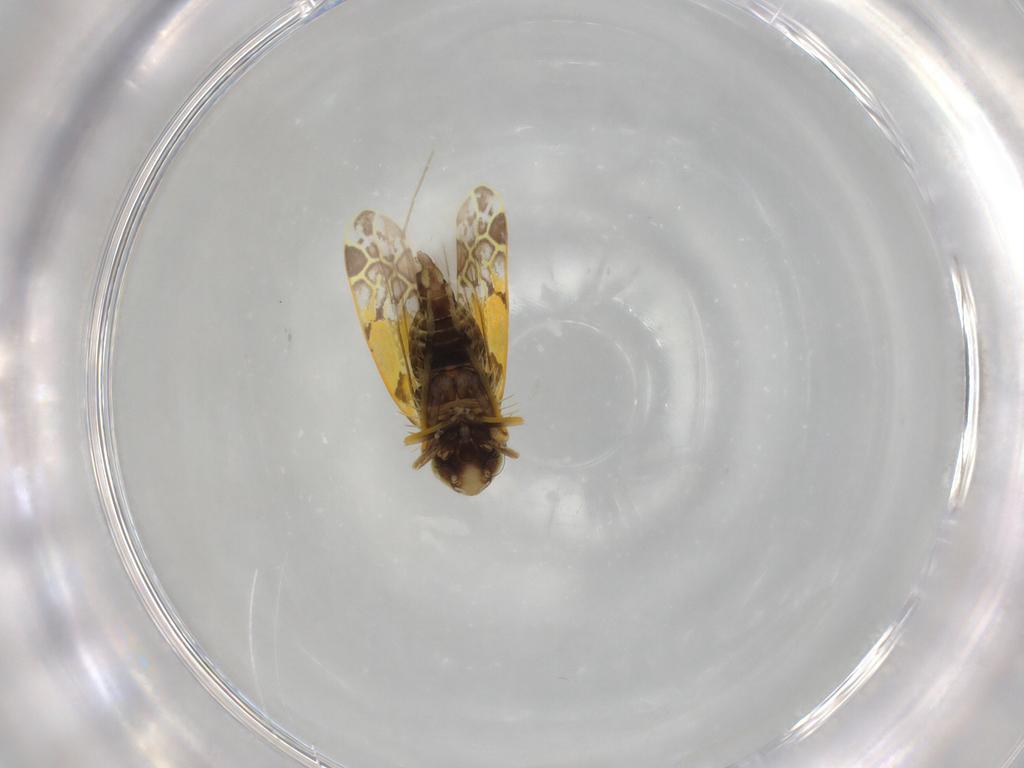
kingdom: Animalia
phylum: Arthropoda
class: Insecta
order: Hemiptera
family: Cicadellidae
